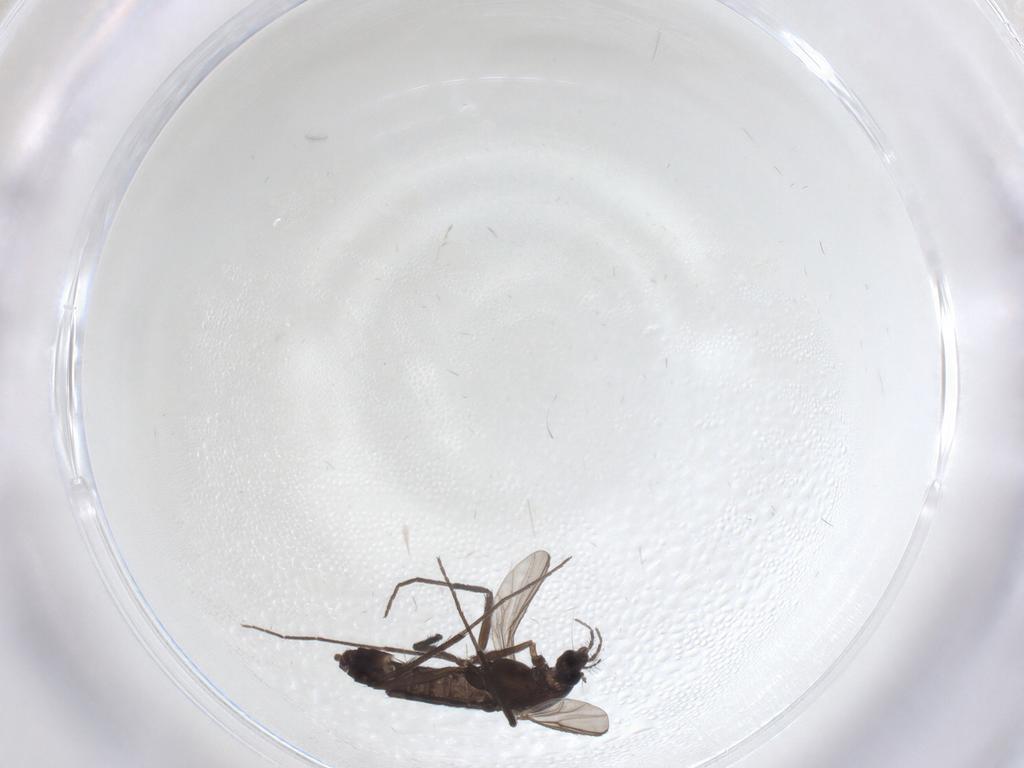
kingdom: Animalia
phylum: Arthropoda
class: Insecta
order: Diptera
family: Chironomidae
